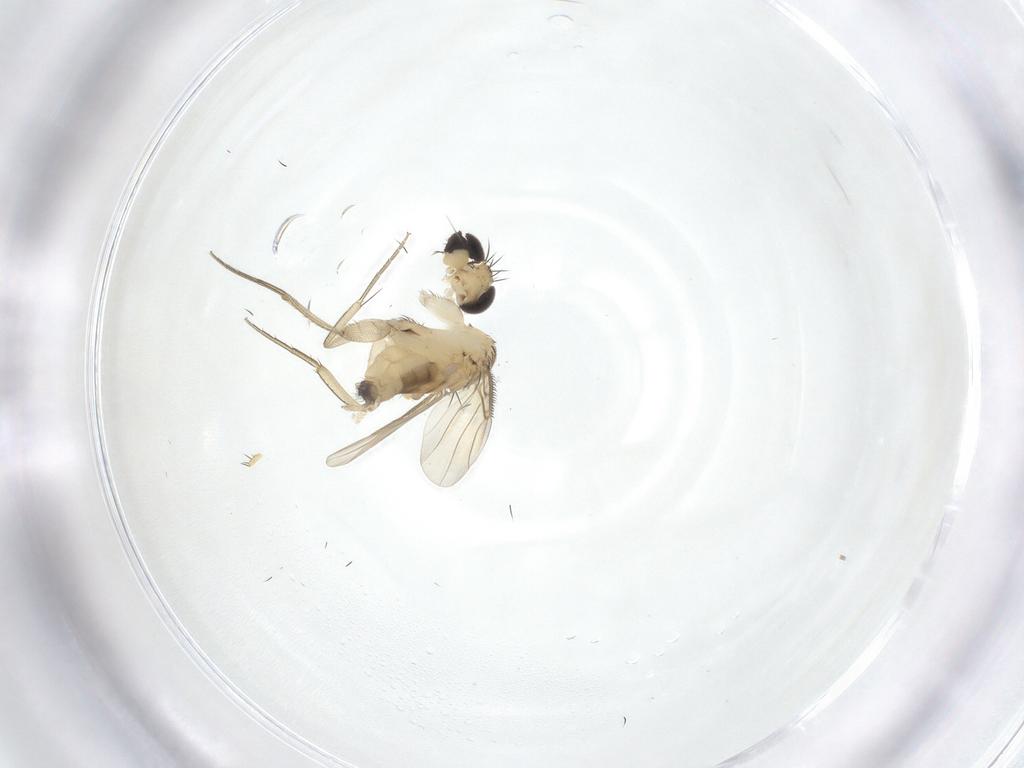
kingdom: Animalia
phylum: Arthropoda
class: Insecta
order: Diptera
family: Phoridae
